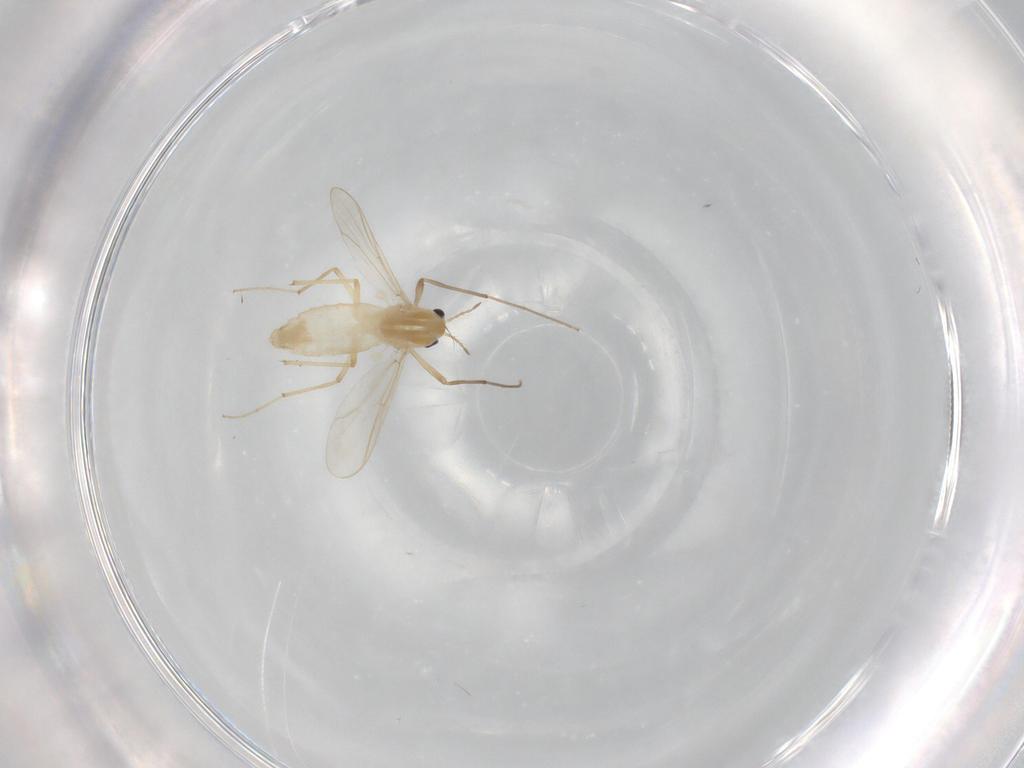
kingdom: Animalia
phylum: Arthropoda
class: Insecta
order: Diptera
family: Chironomidae
